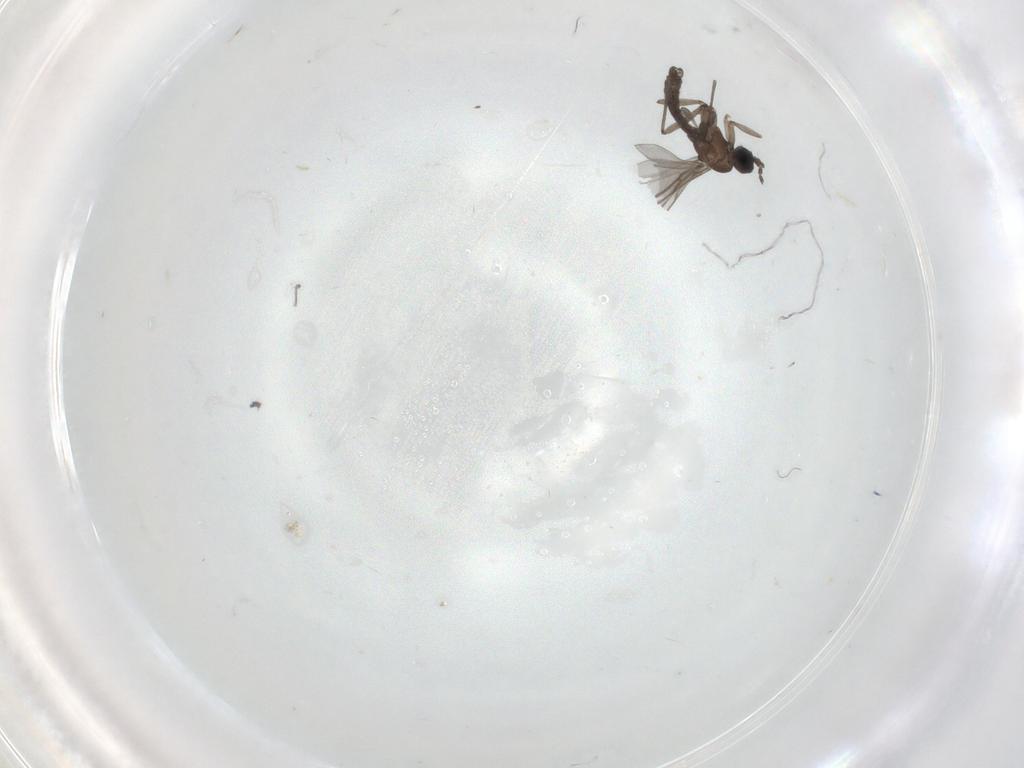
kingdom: Animalia
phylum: Arthropoda
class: Insecta
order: Diptera
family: Sciaridae
